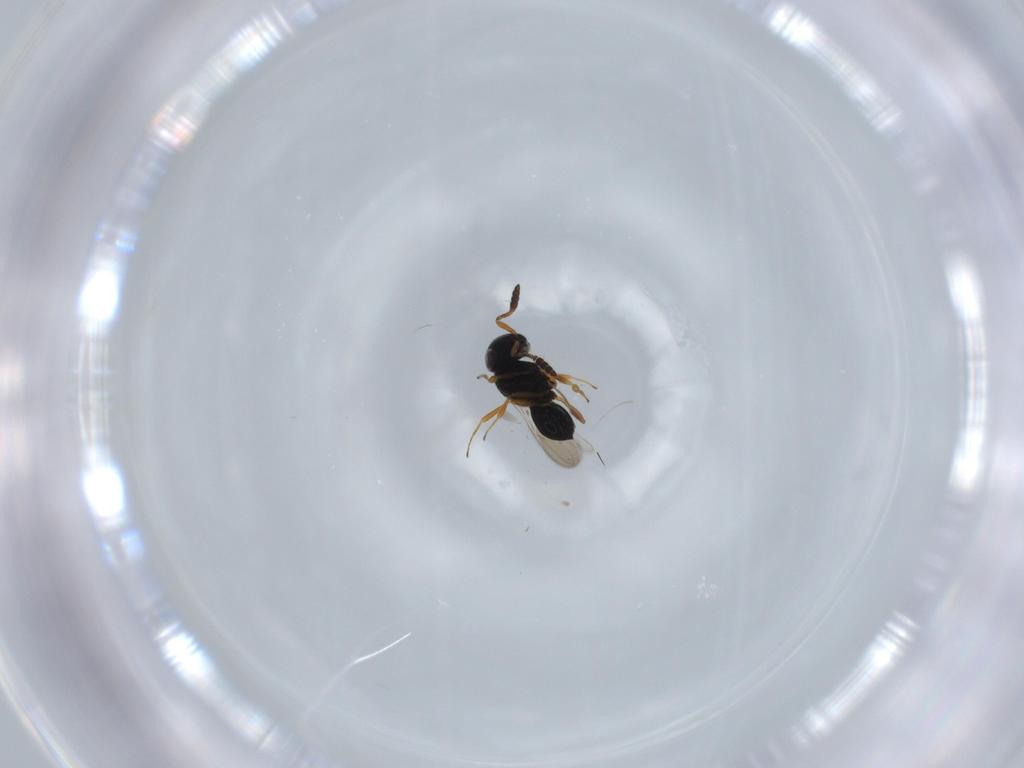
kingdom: Animalia
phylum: Arthropoda
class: Insecta
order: Hymenoptera
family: Scelionidae
